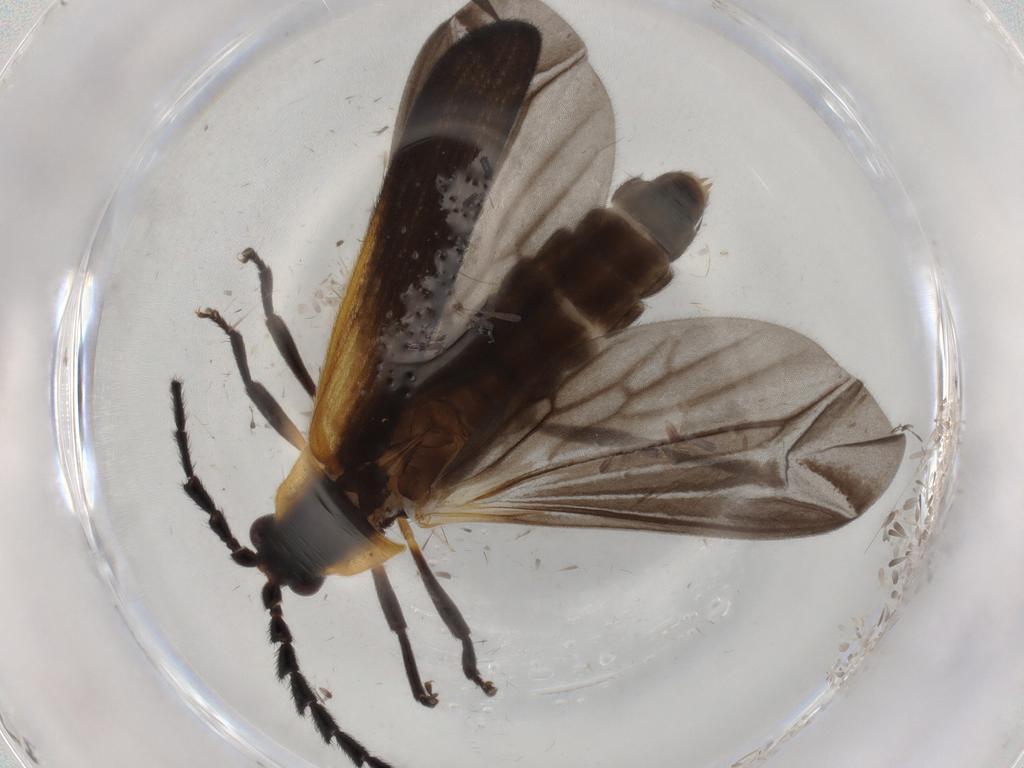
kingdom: Animalia
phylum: Arthropoda
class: Insecta
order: Coleoptera
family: Lycidae
